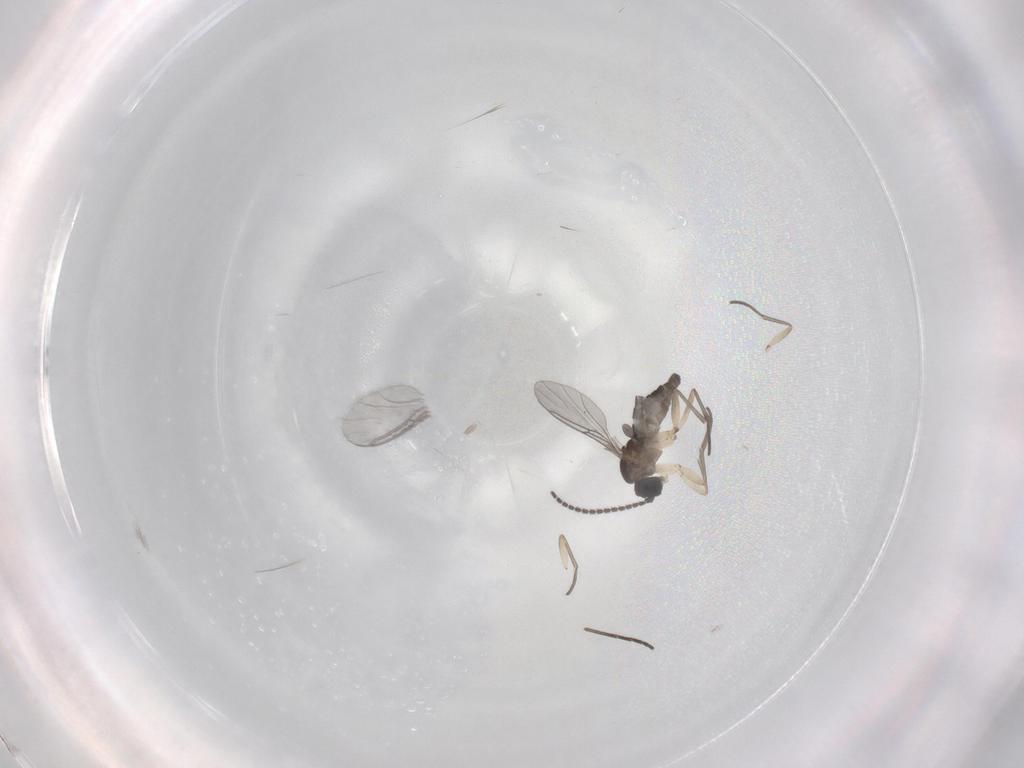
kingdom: Animalia
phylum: Arthropoda
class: Insecta
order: Diptera
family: Sciaridae
